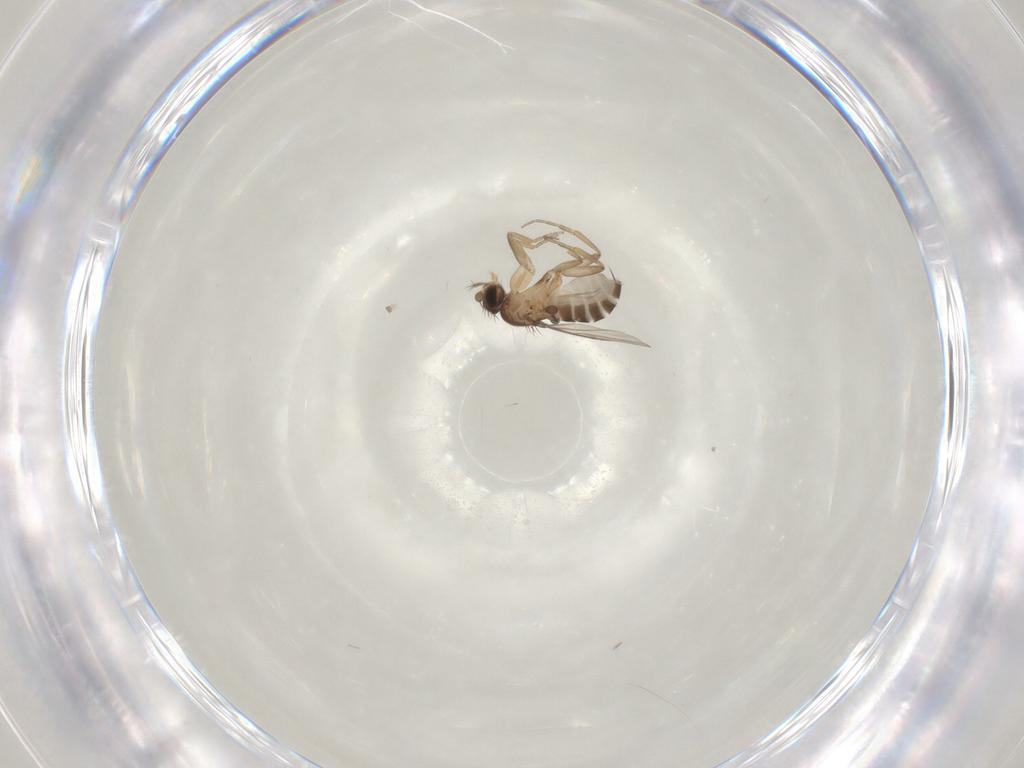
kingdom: Animalia
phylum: Arthropoda
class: Insecta
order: Diptera
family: Phoridae
